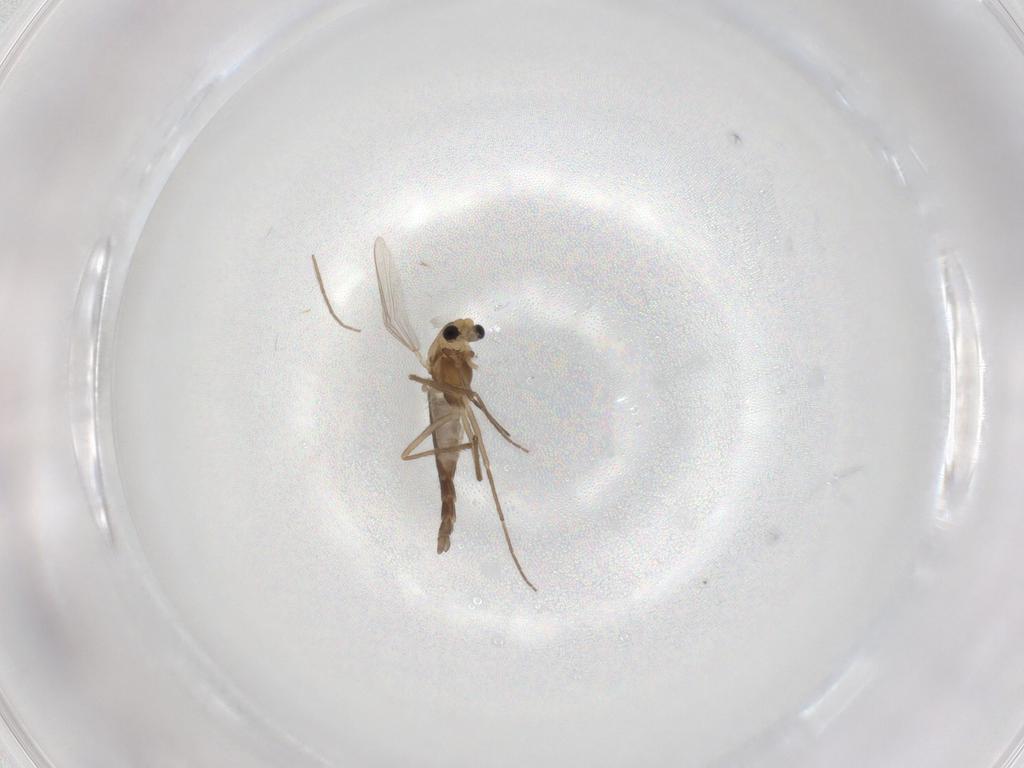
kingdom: Animalia
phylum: Arthropoda
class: Insecta
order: Diptera
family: Chironomidae
